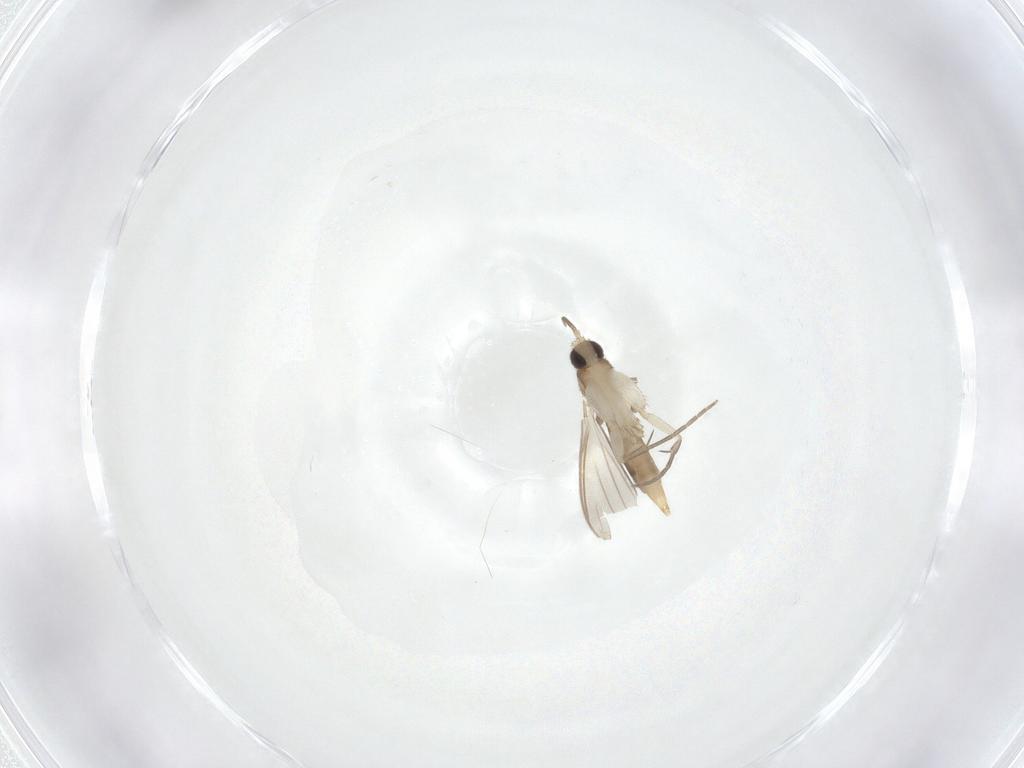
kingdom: Animalia
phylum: Arthropoda
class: Insecta
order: Diptera
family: Mycetophilidae
